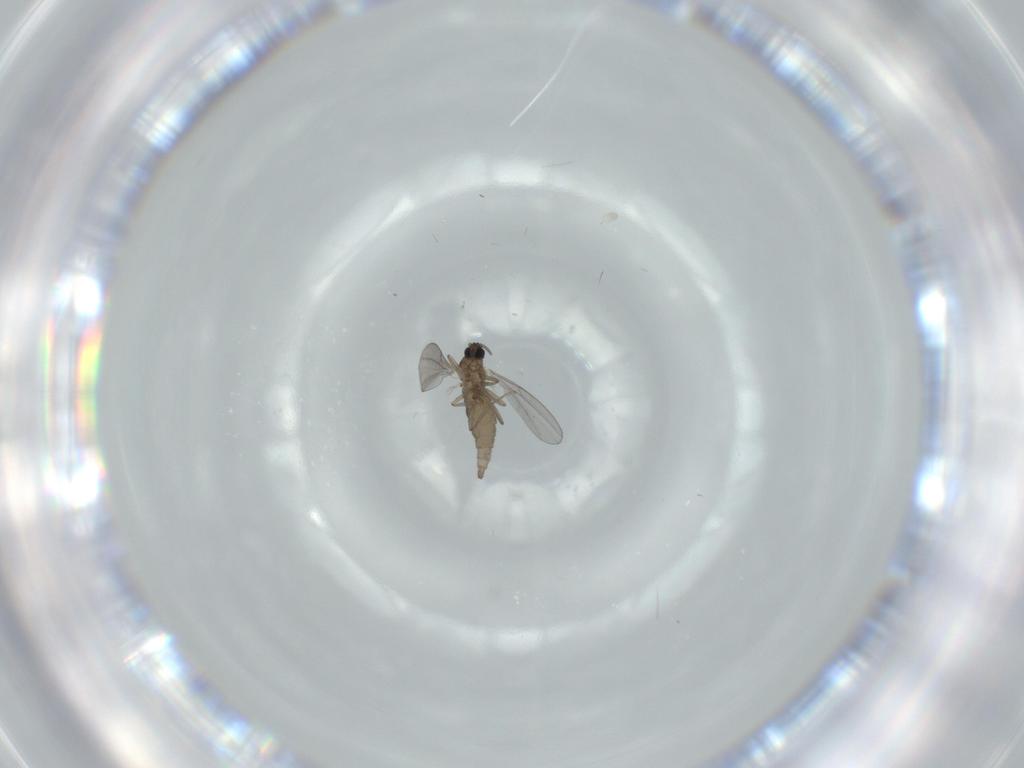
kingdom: Animalia
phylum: Arthropoda
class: Insecta
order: Diptera
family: Cecidomyiidae
